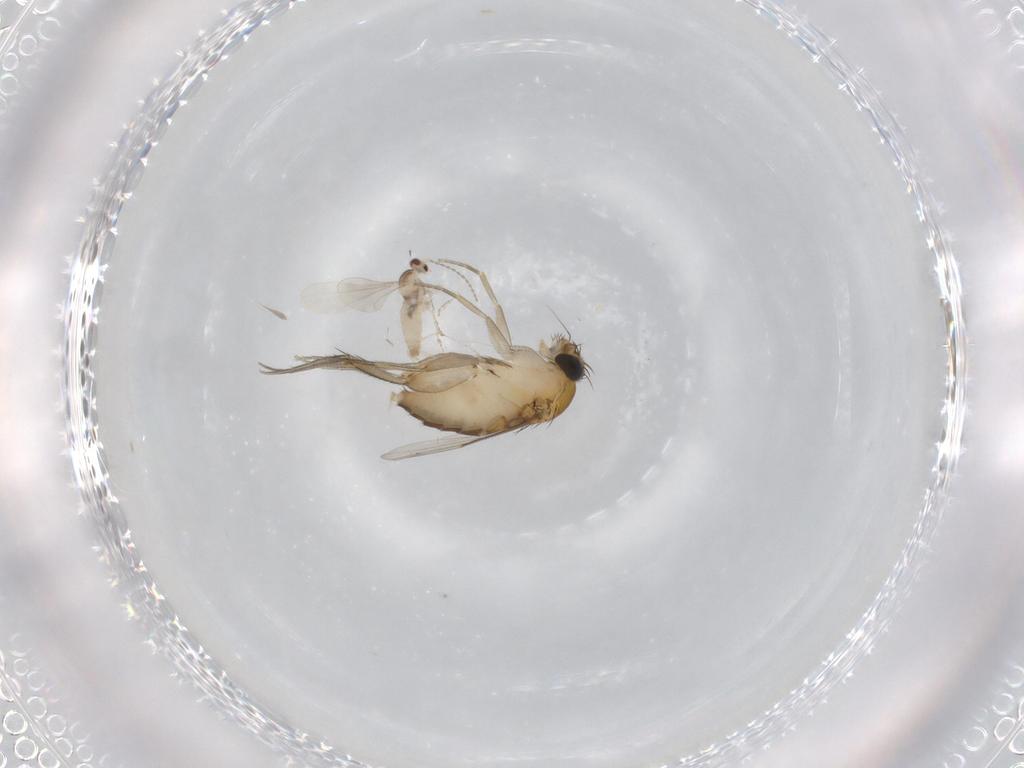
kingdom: Animalia
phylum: Arthropoda
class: Insecta
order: Diptera
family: Phoridae
